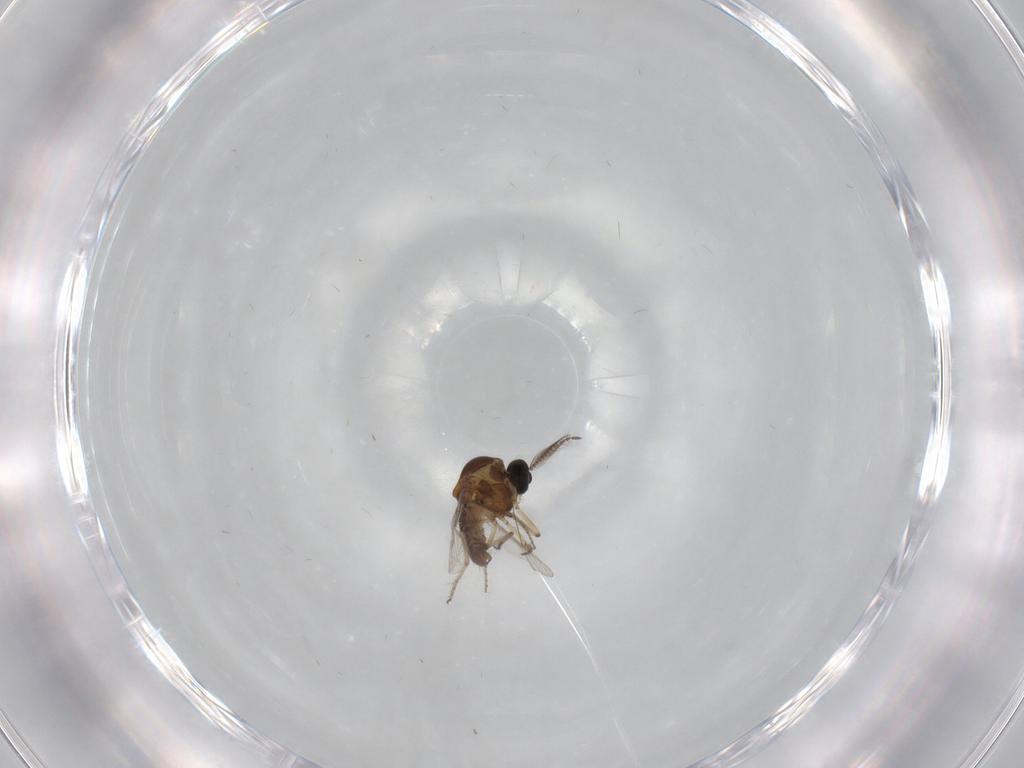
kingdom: Animalia
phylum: Arthropoda
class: Insecta
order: Diptera
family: Ceratopogonidae
